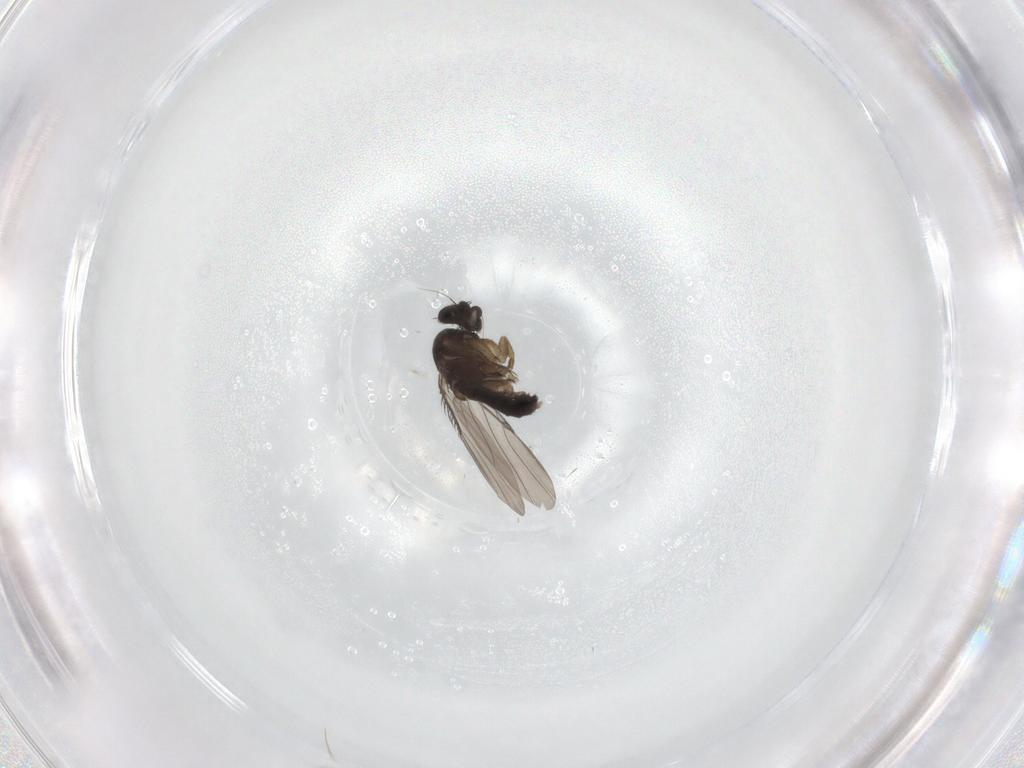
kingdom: Animalia
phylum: Arthropoda
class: Insecta
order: Diptera
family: Phoridae
